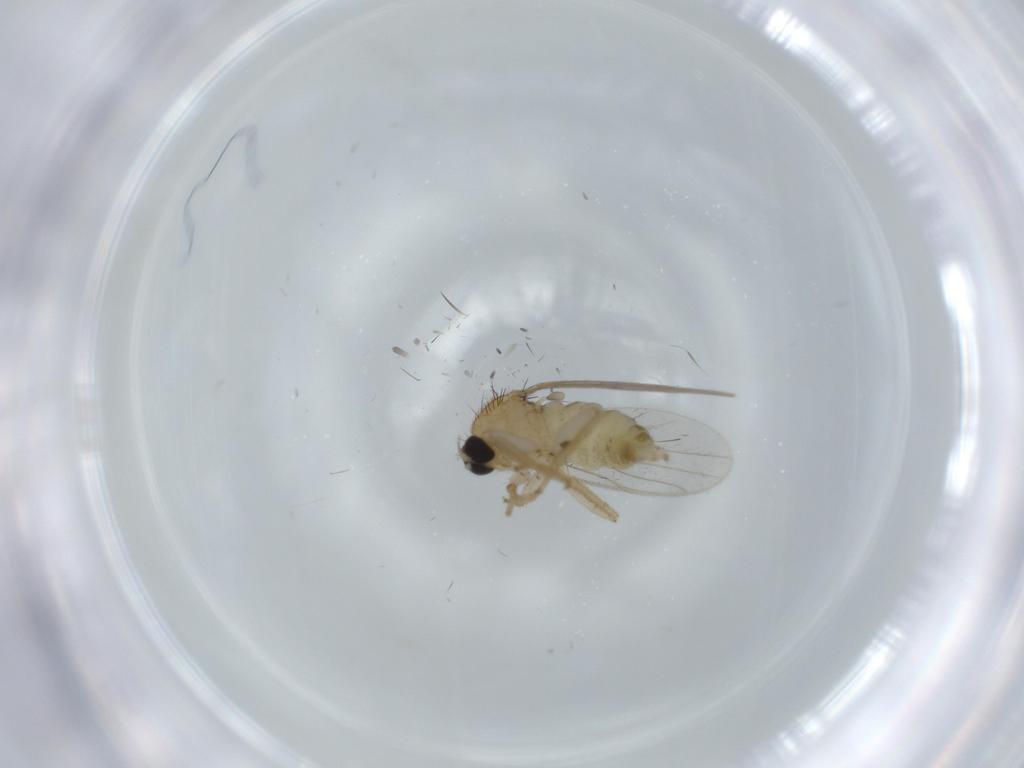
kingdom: Animalia
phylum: Arthropoda
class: Insecta
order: Diptera
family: Hybotidae
